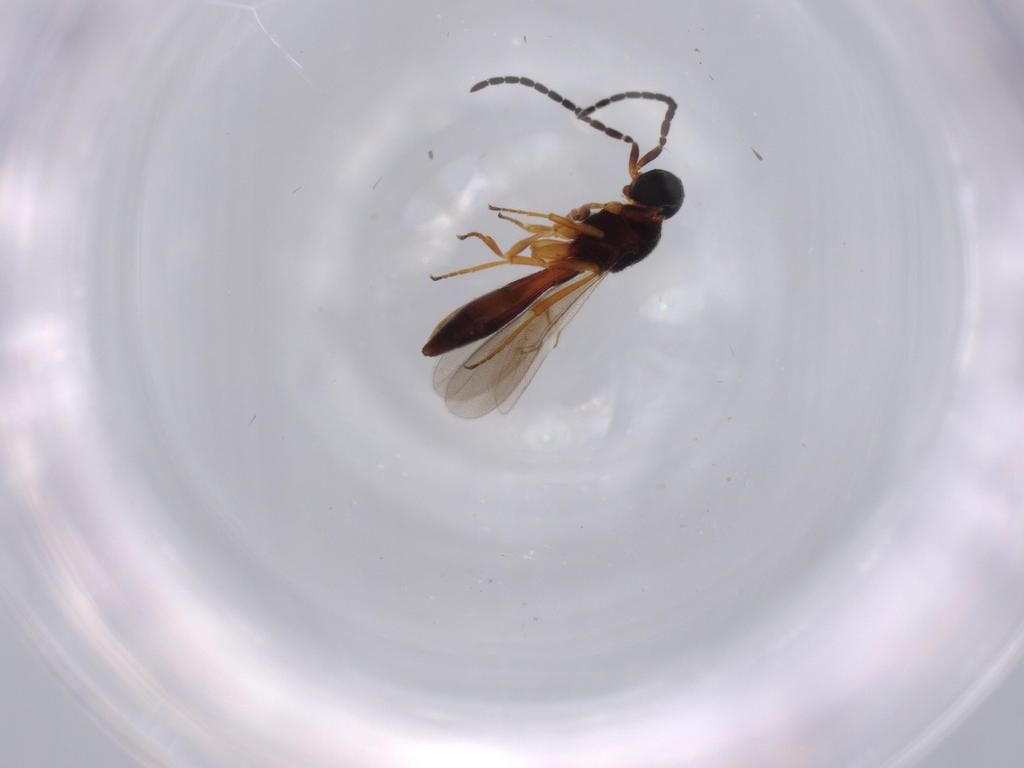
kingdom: Animalia
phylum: Arthropoda
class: Insecta
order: Hymenoptera
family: Scelionidae
